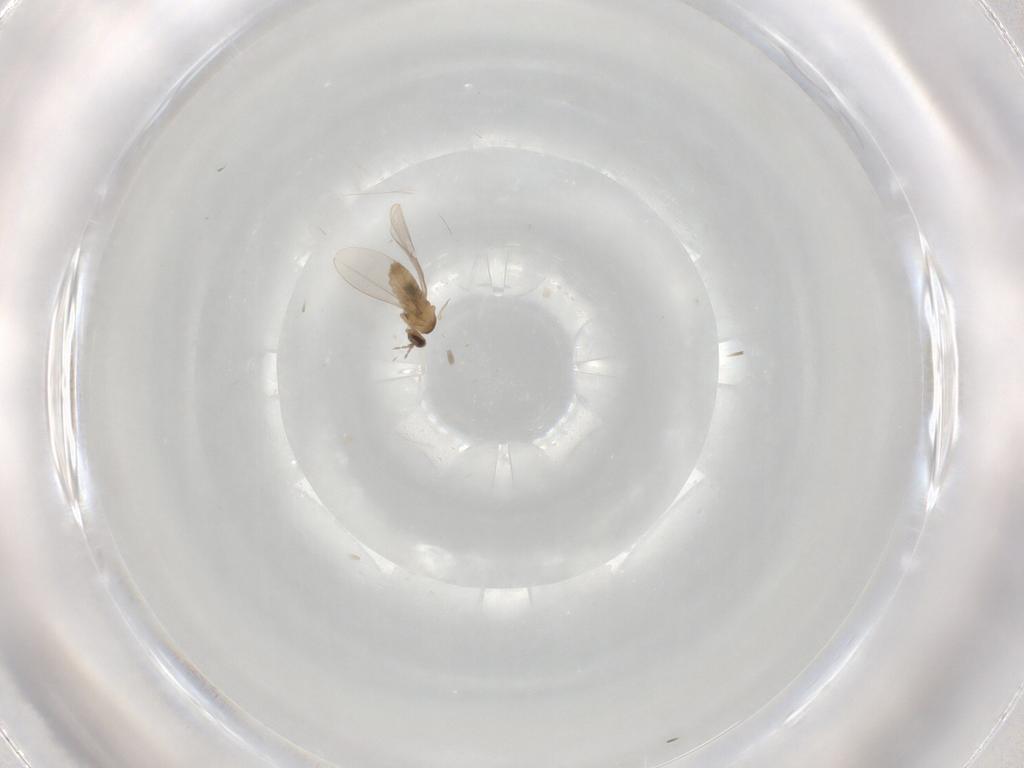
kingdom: Animalia
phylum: Arthropoda
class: Insecta
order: Diptera
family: Cecidomyiidae
